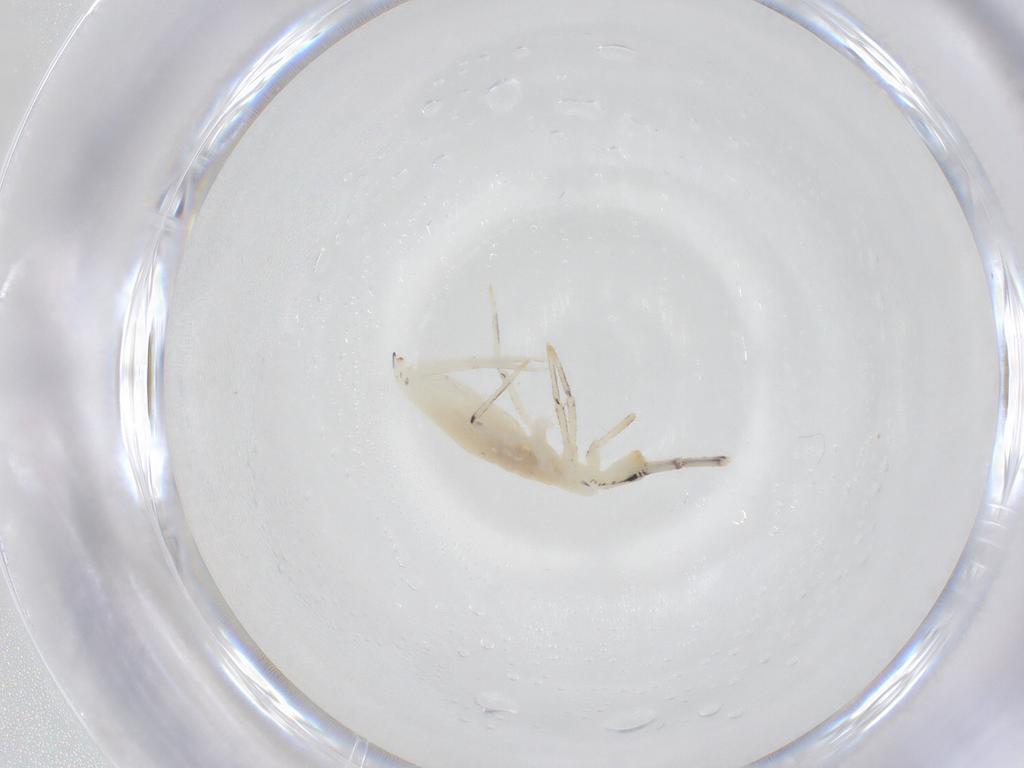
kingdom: Animalia
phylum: Arthropoda
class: Collembola
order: Entomobryomorpha
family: Entomobryidae
